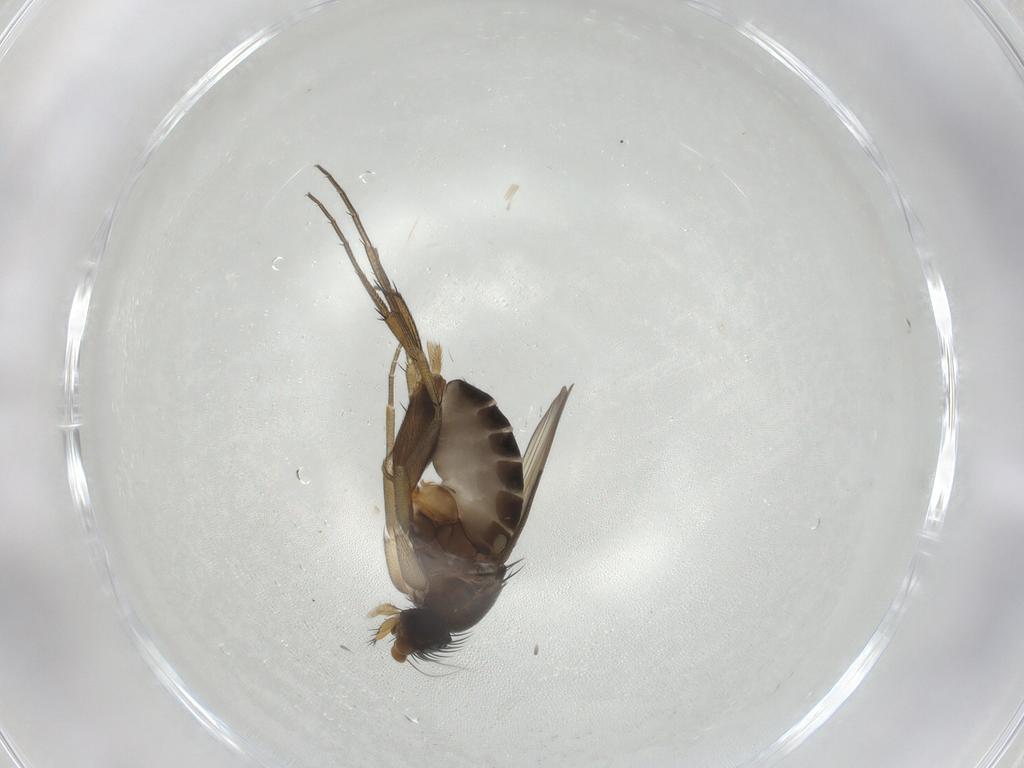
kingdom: Animalia
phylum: Arthropoda
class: Insecta
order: Diptera
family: Phoridae
